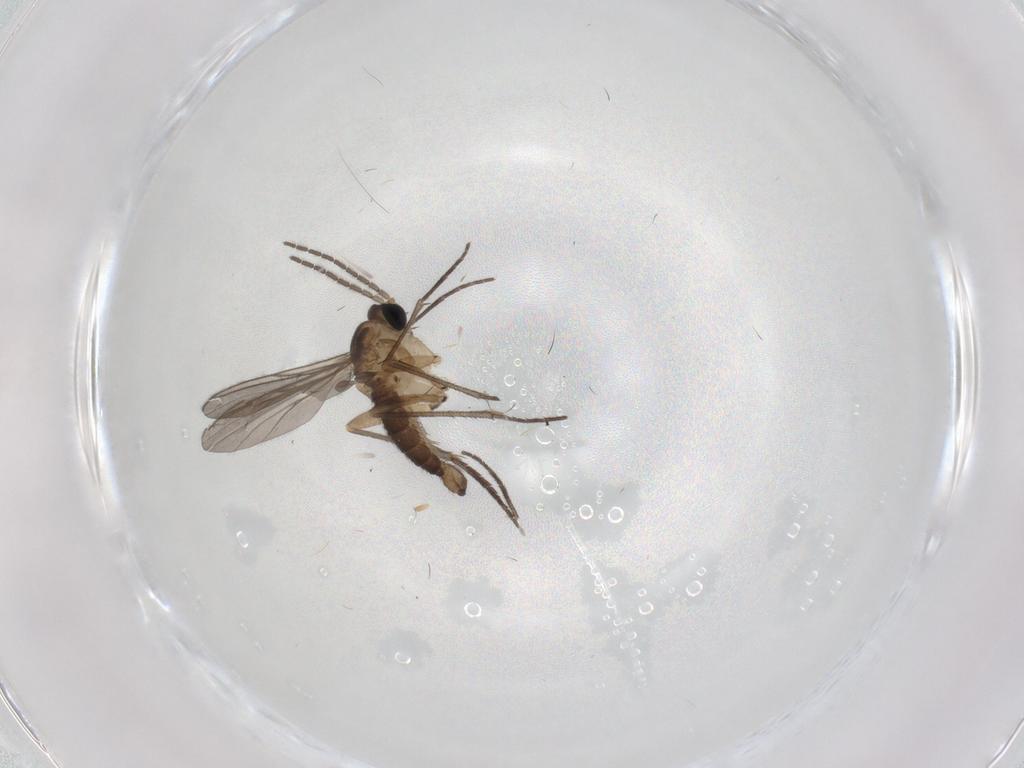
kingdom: Animalia
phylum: Arthropoda
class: Insecta
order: Diptera
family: Sciaridae
